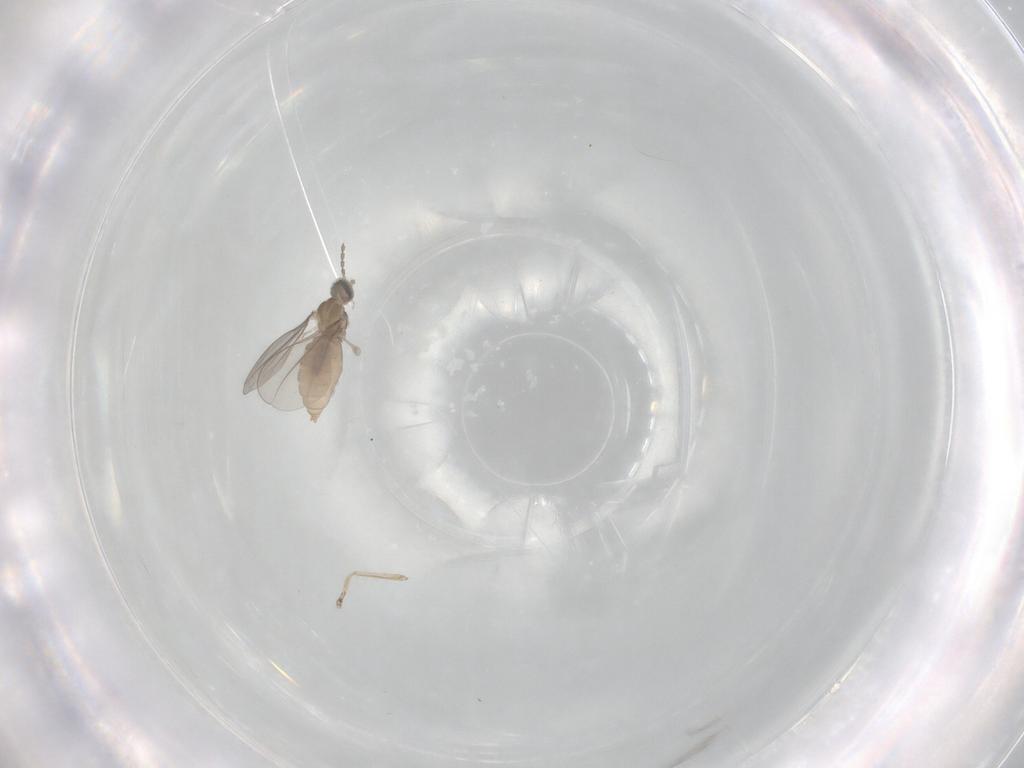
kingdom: Animalia
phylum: Arthropoda
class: Insecta
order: Diptera
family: Cecidomyiidae
